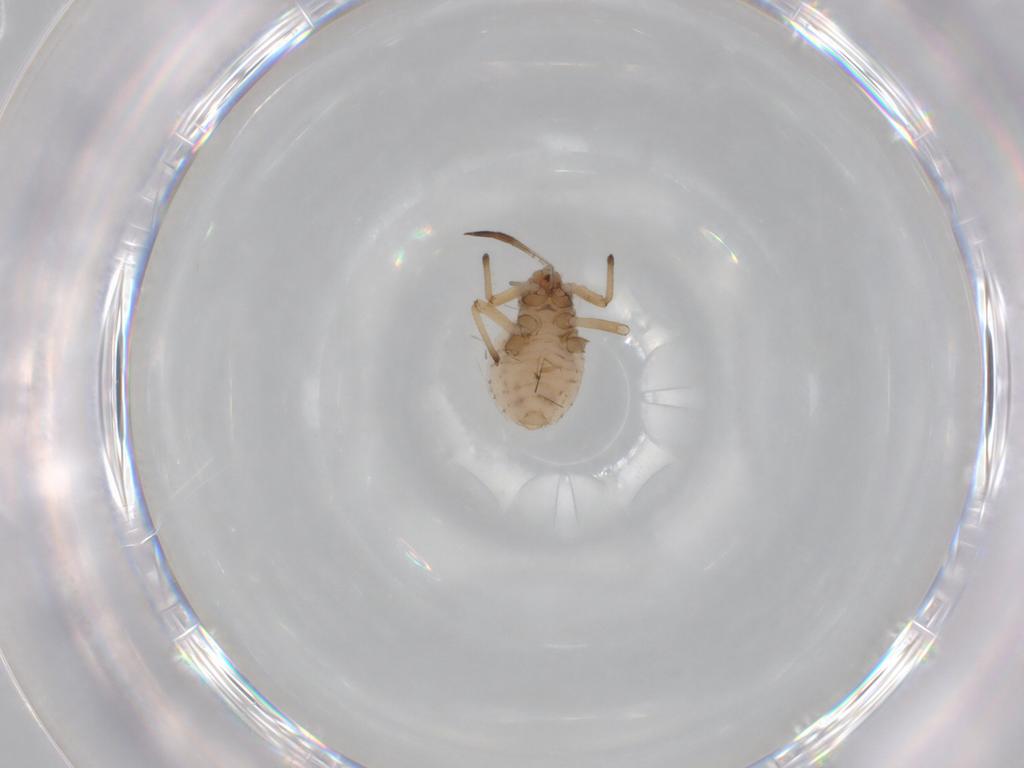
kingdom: Animalia
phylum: Arthropoda
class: Insecta
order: Hemiptera
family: Aphididae
